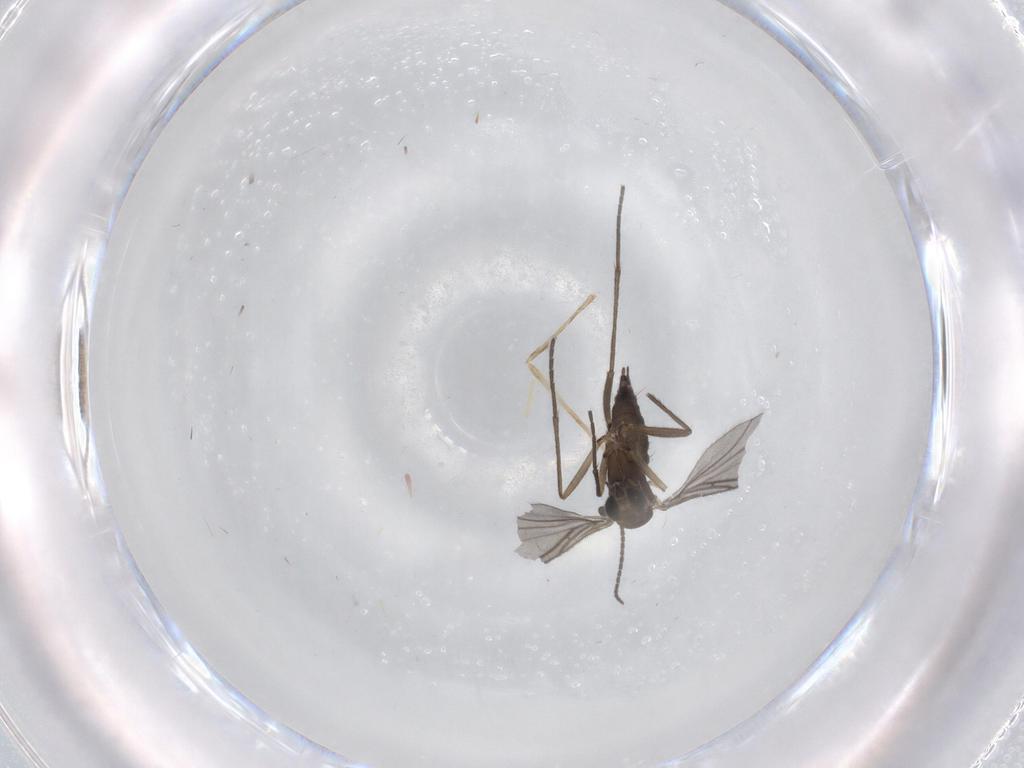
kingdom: Animalia
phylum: Arthropoda
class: Insecta
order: Diptera
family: Sciaridae
